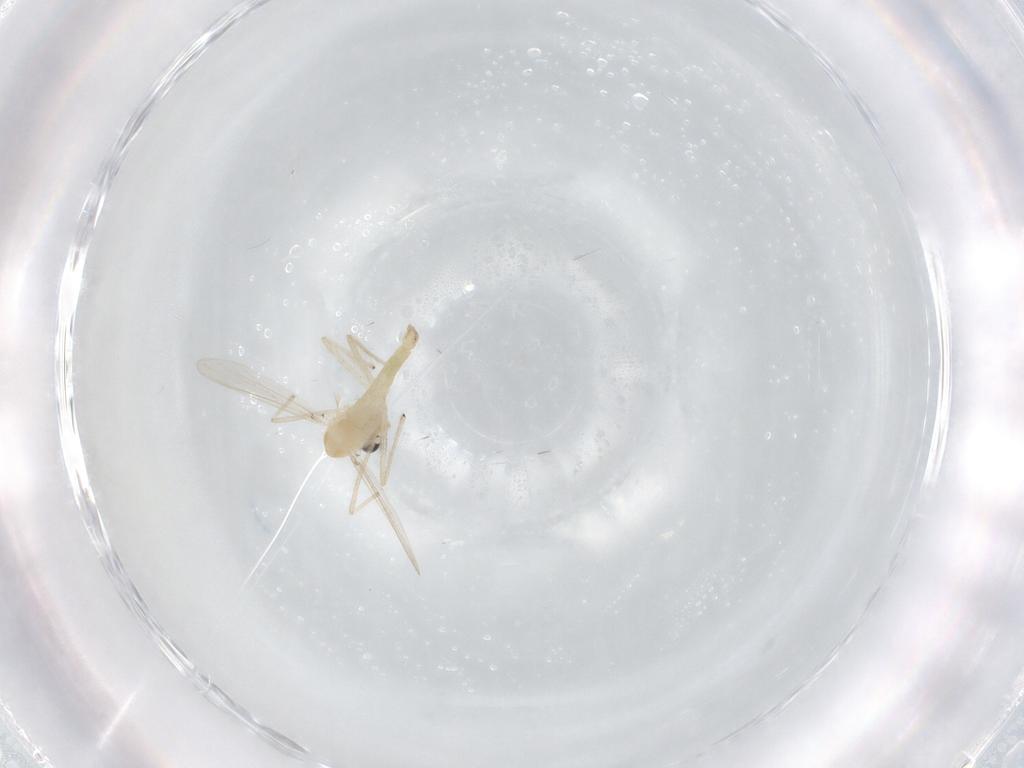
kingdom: Animalia
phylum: Arthropoda
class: Insecta
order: Diptera
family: Chironomidae
